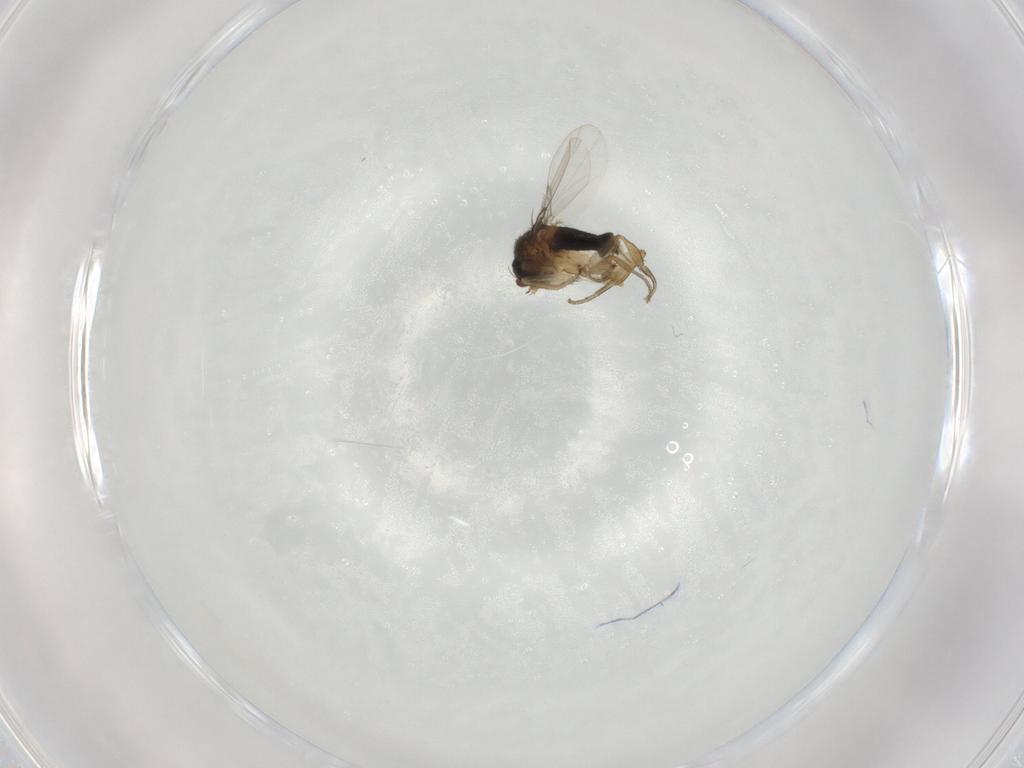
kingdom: Animalia
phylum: Arthropoda
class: Insecta
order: Diptera
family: Phoridae
